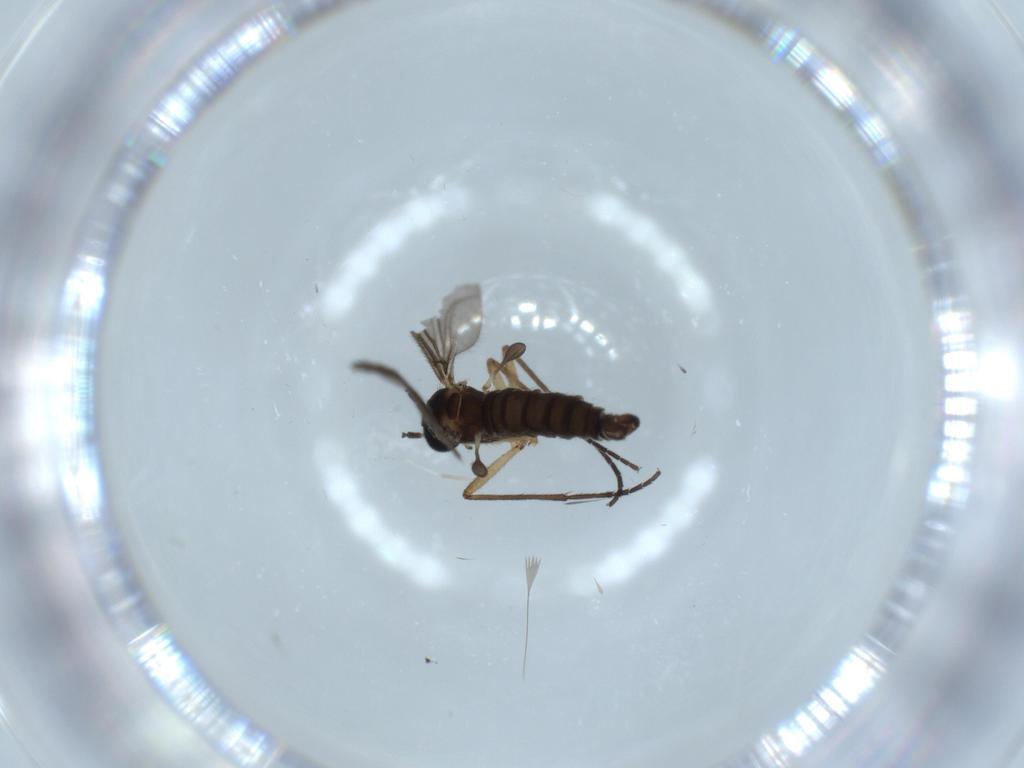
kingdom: Animalia
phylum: Arthropoda
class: Insecta
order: Diptera
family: Cecidomyiidae
